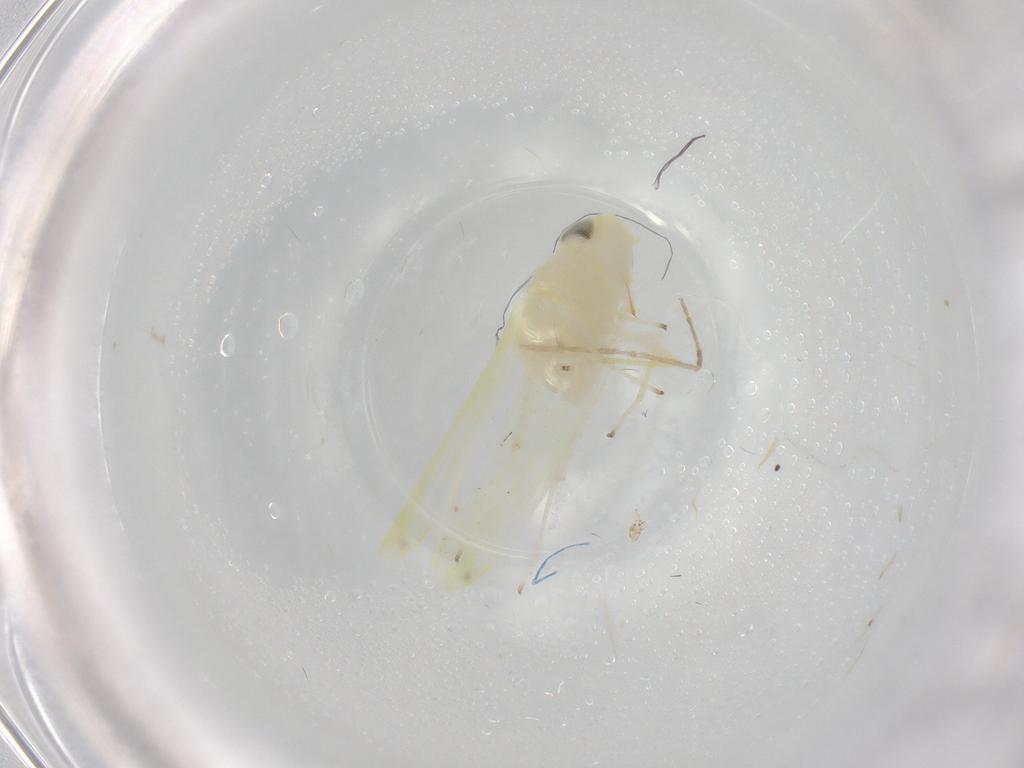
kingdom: Animalia
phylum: Arthropoda
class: Insecta
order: Hemiptera
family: Cicadellidae
